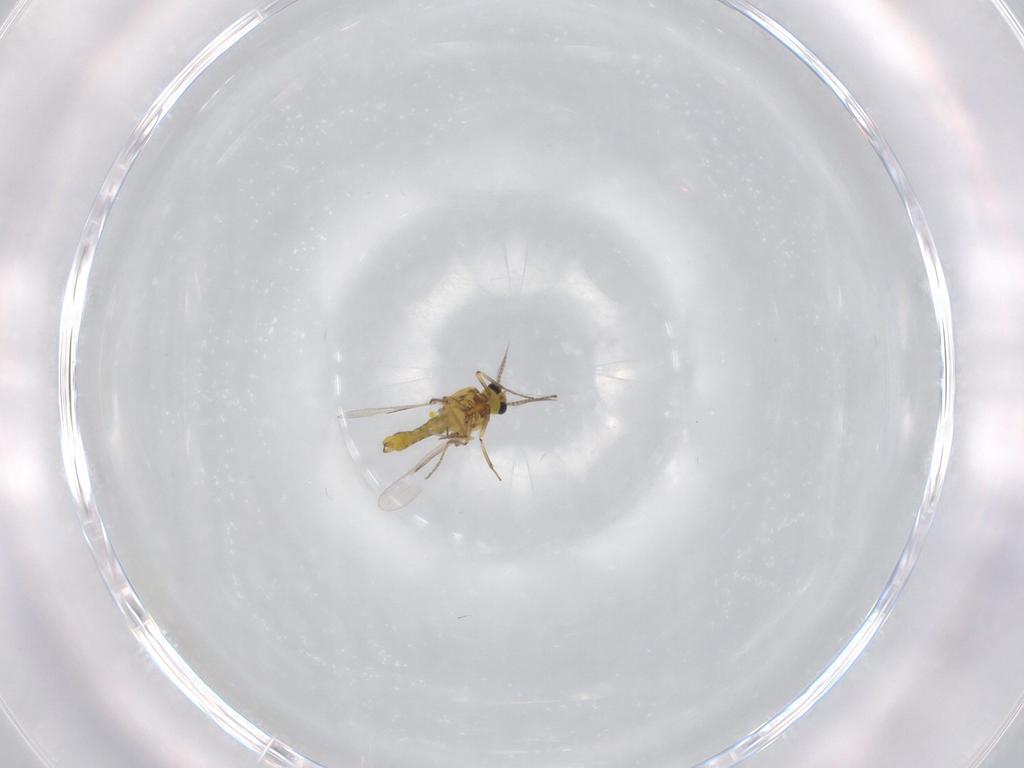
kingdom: Animalia
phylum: Arthropoda
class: Insecta
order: Diptera
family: Ceratopogonidae
